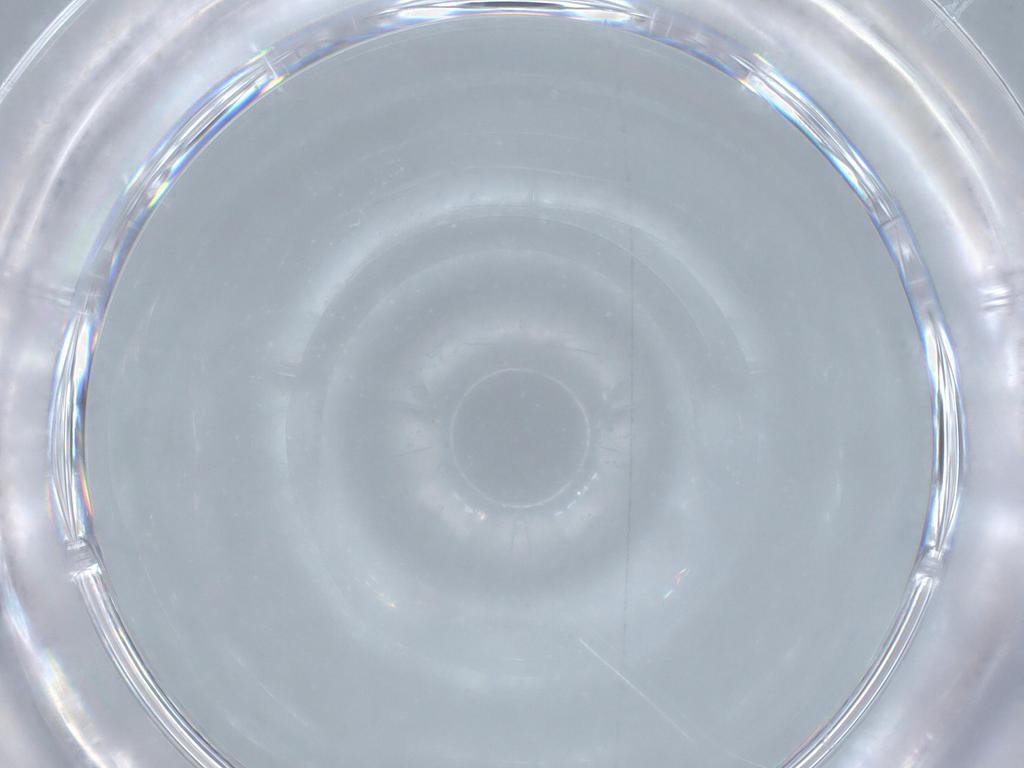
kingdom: Animalia
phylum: Arthropoda
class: Insecta
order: Diptera
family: Sciaridae
